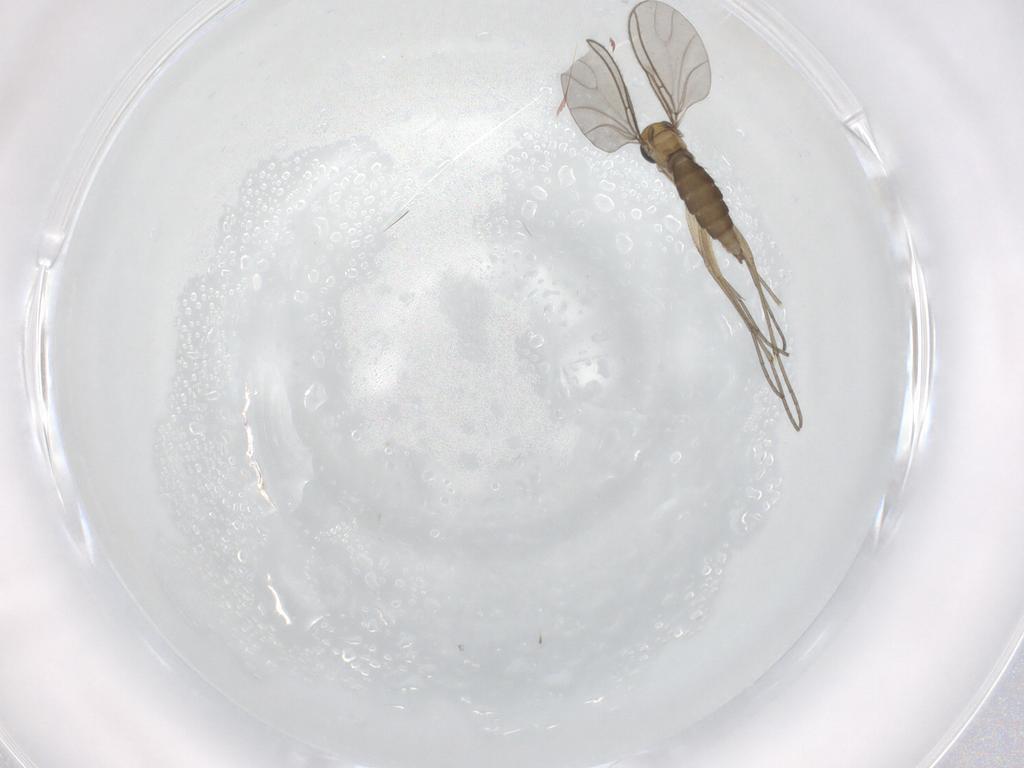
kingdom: Animalia
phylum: Arthropoda
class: Insecta
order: Diptera
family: Sciaridae
